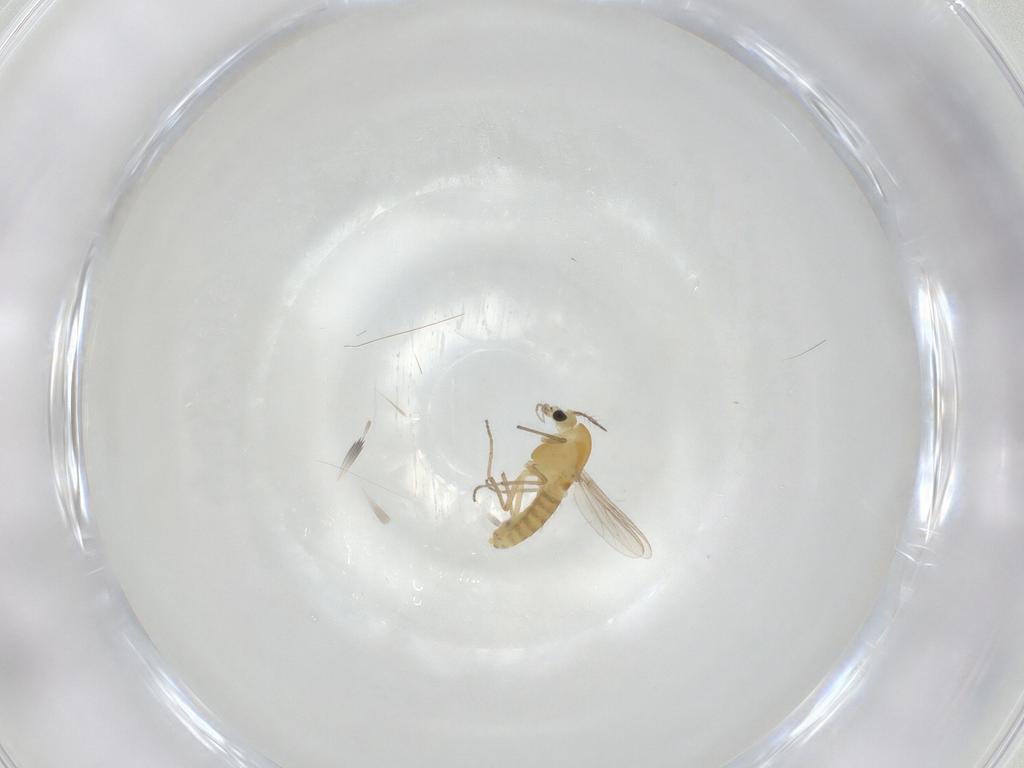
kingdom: Animalia
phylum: Arthropoda
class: Insecta
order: Diptera
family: Chironomidae
